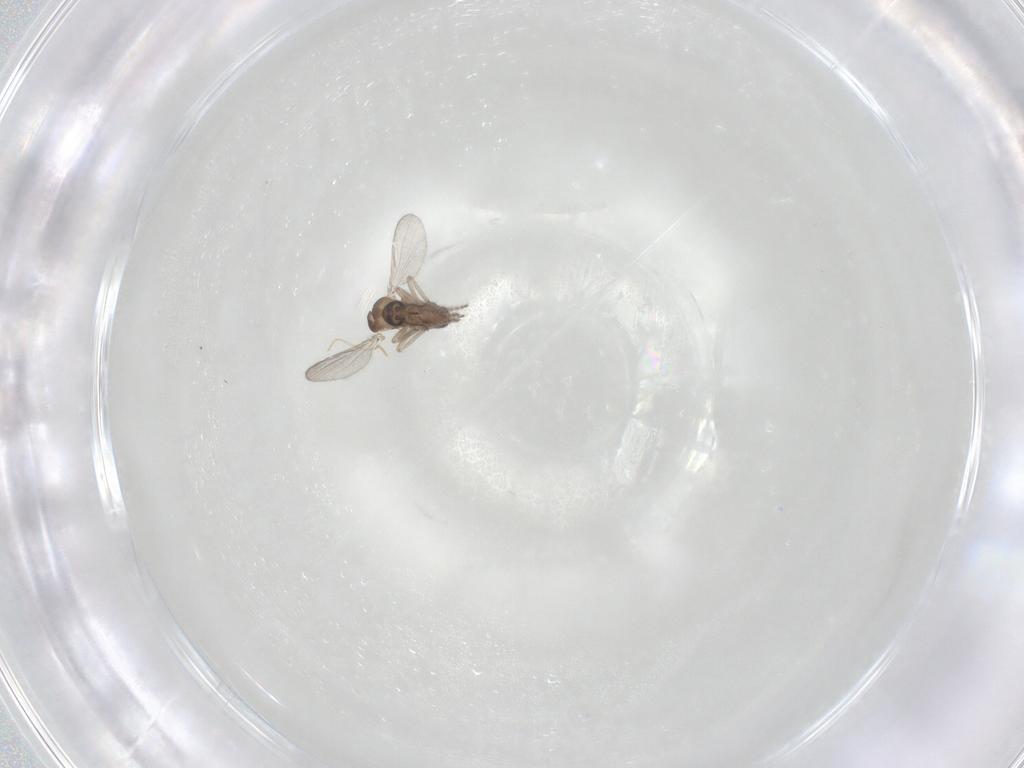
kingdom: Animalia
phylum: Arthropoda
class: Insecta
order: Diptera
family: Ceratopogonidae
